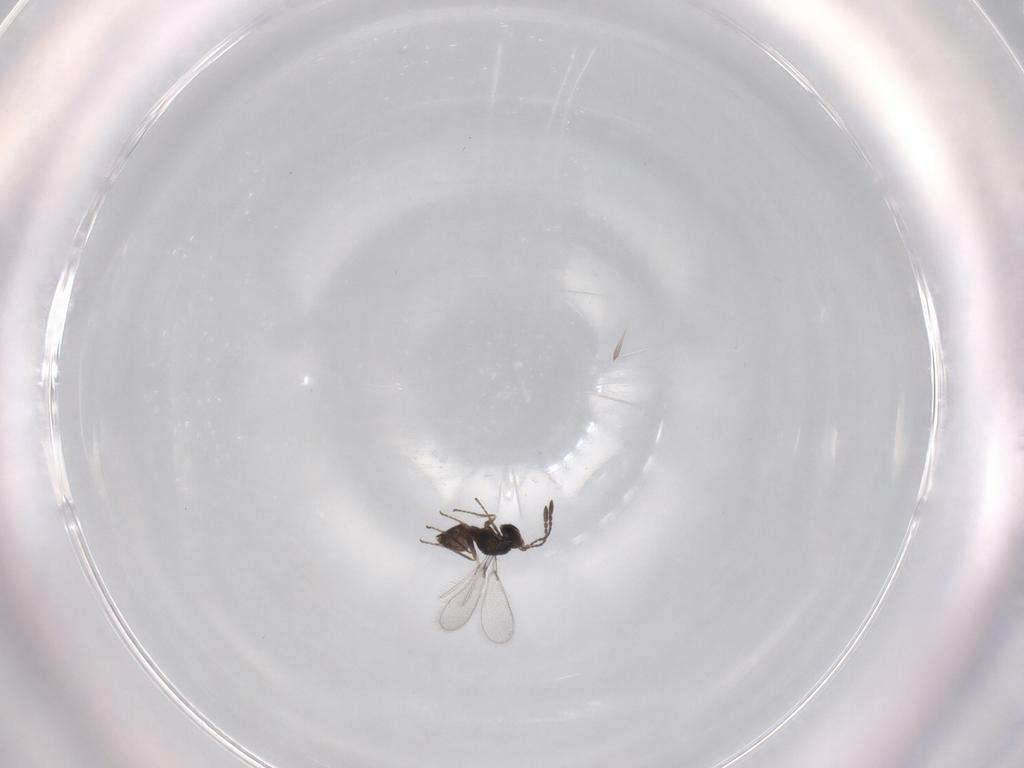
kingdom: Animalia
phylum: Arthropoda
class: Insecta
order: Hymenoptera
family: Mymaridae
